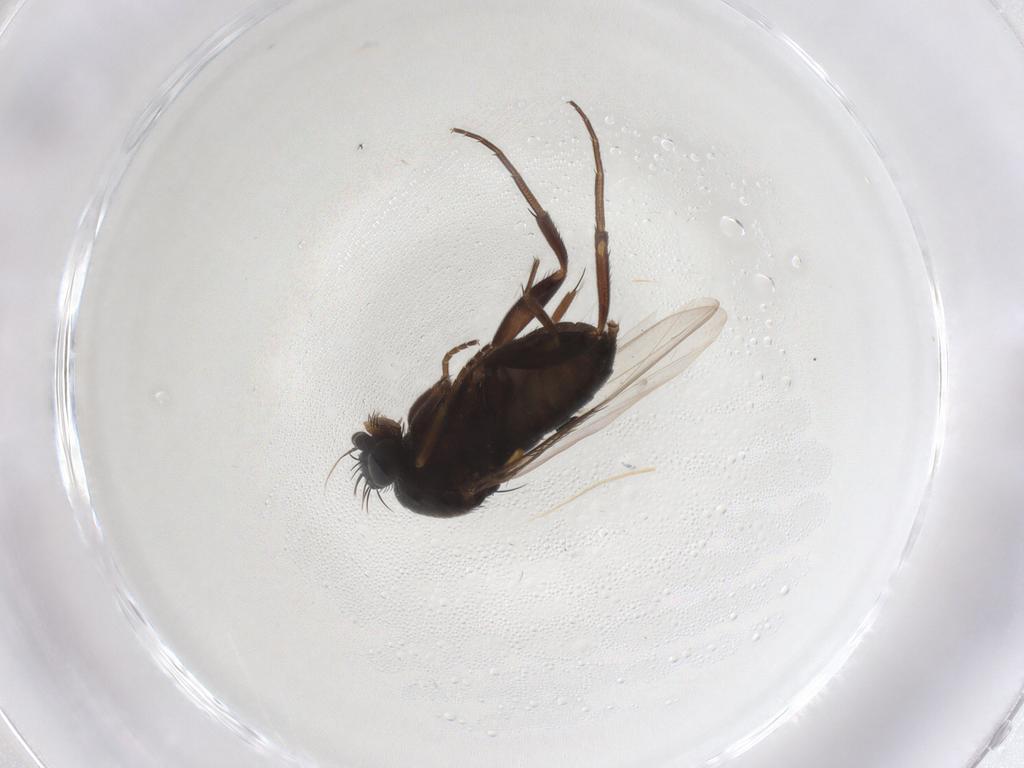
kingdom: Animalia
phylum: Arthropoda
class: Insecta
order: Diptera
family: Phoridae
